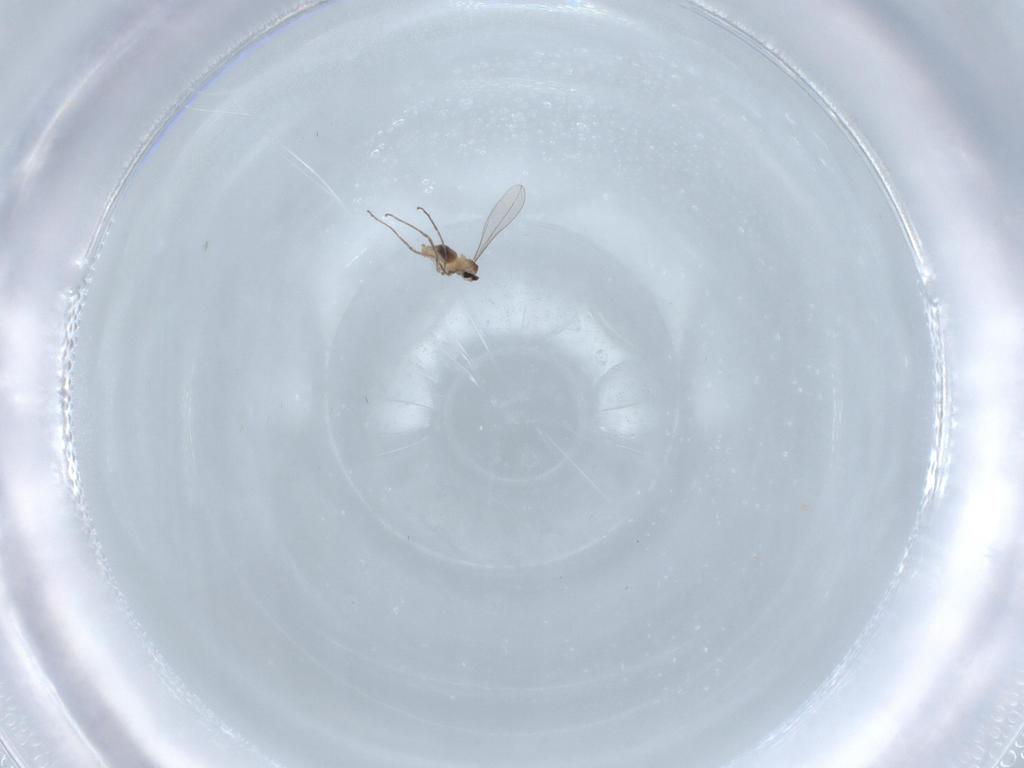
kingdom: Animalia
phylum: Arthropoda
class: Insecta
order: Diptera
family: Cecidomyiidae
